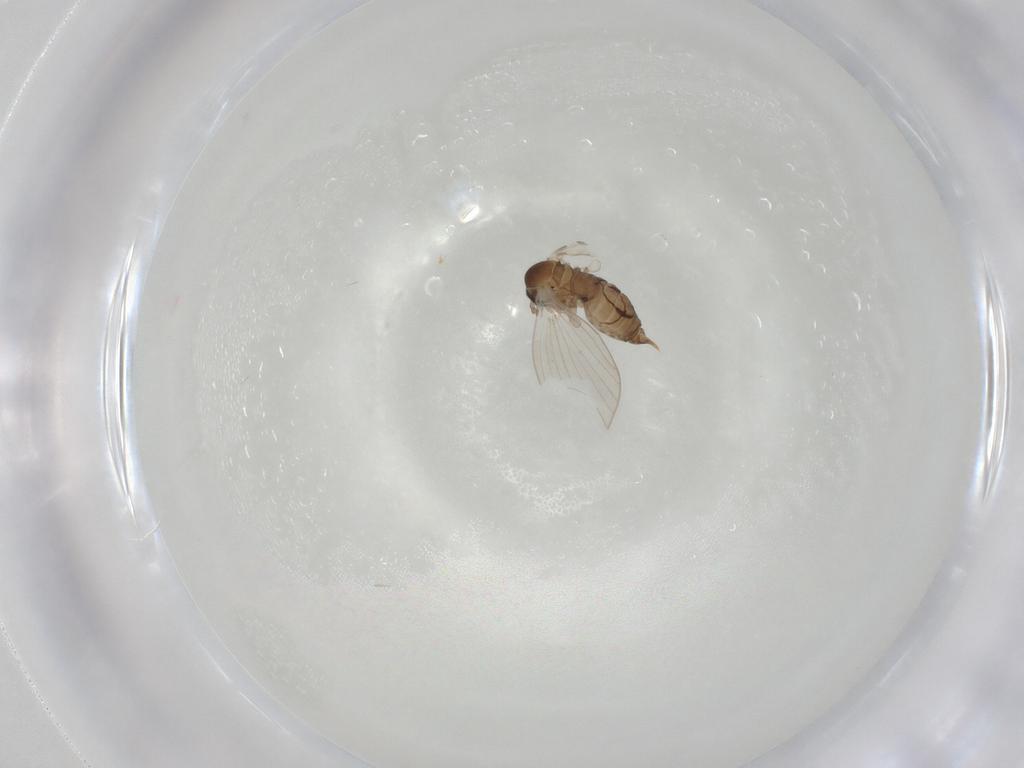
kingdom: Animalia
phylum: Arthropoda
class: Insecta
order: Diptera
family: Psychodidae
